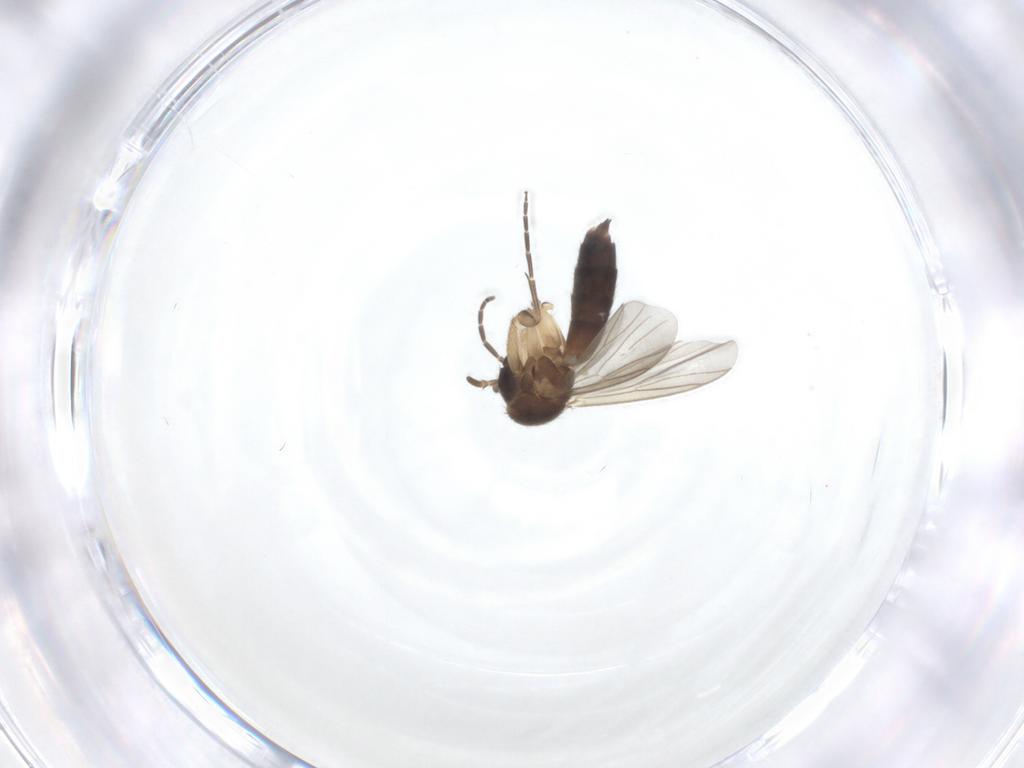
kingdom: Animalia
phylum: Arthropoda
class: Insecta
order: Diptera
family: Mycetophilidae
